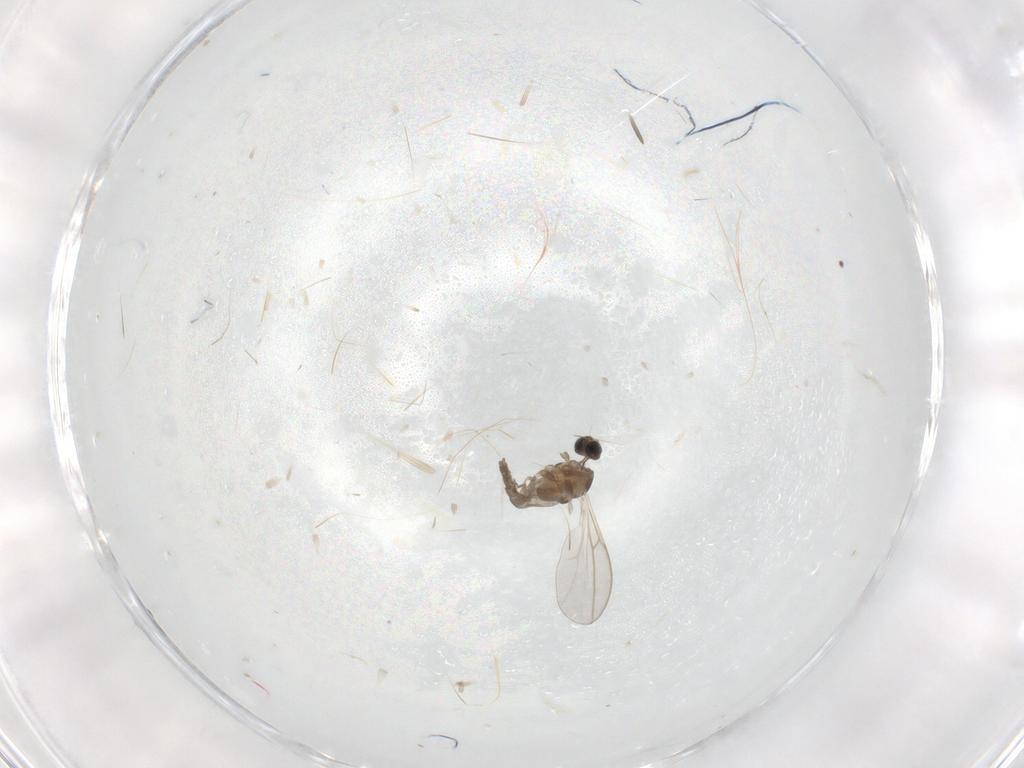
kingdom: Animalia
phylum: Arthropoda
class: Insecta
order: Diptera
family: Cecidomyiidae
